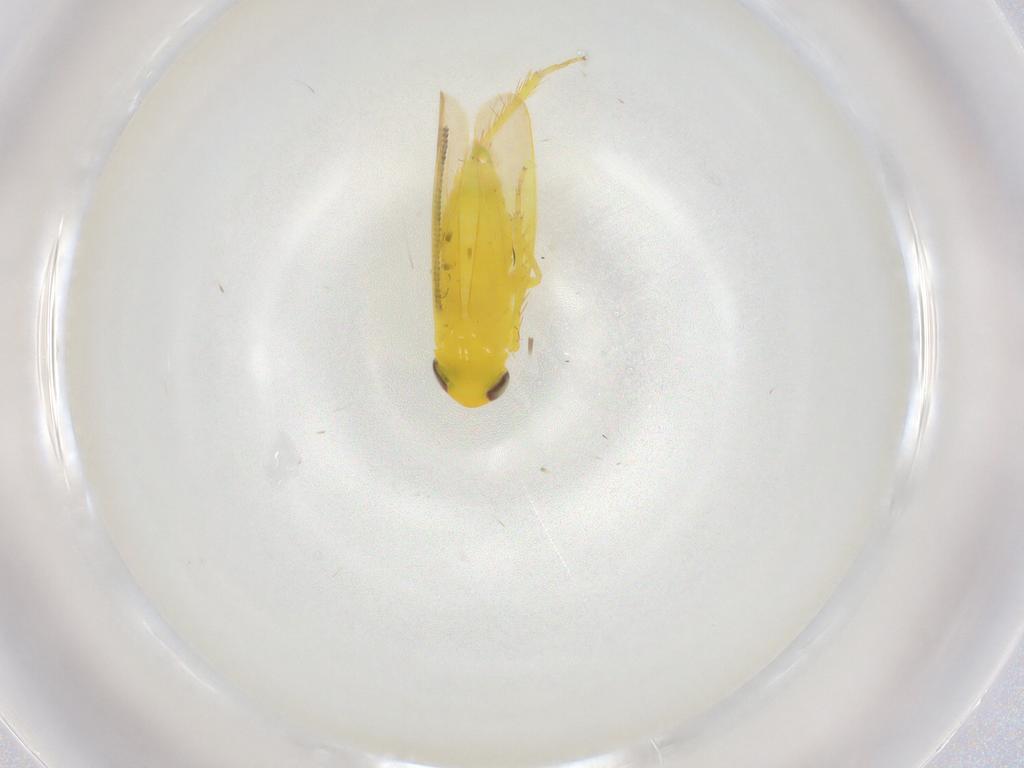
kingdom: Animalia
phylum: Arthropoda
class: Insecta
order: Hemiptera
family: Cicadellidae
